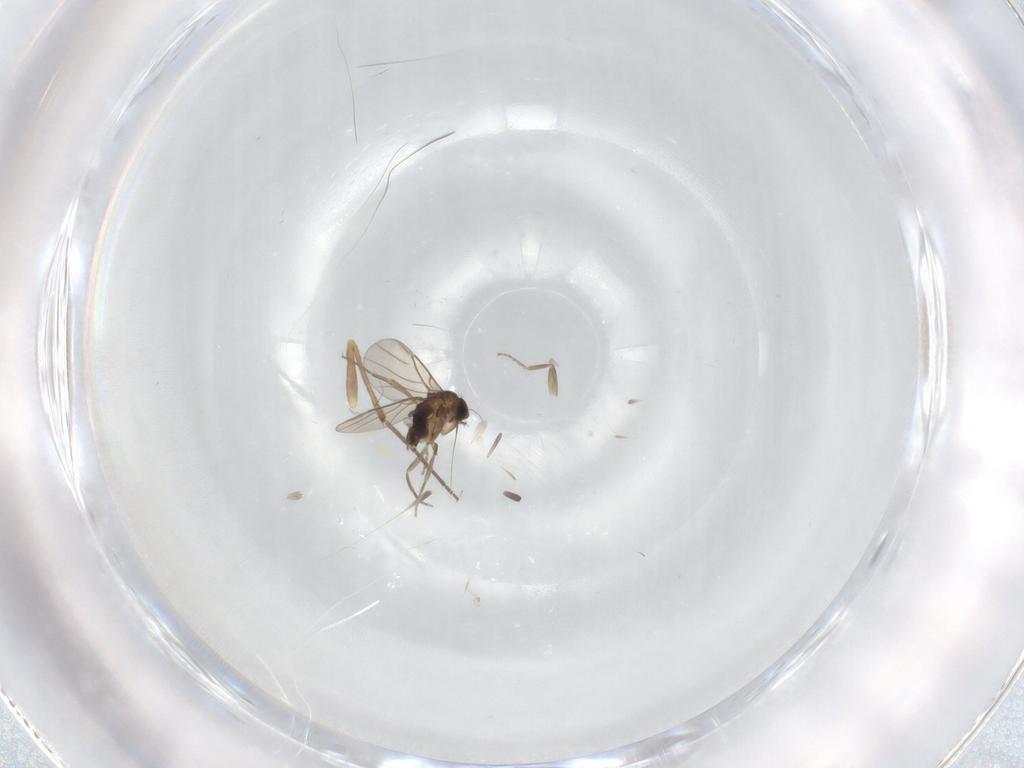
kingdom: Animalia
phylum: Arthropoda
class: Insecta
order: Diptera
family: Phoridae
